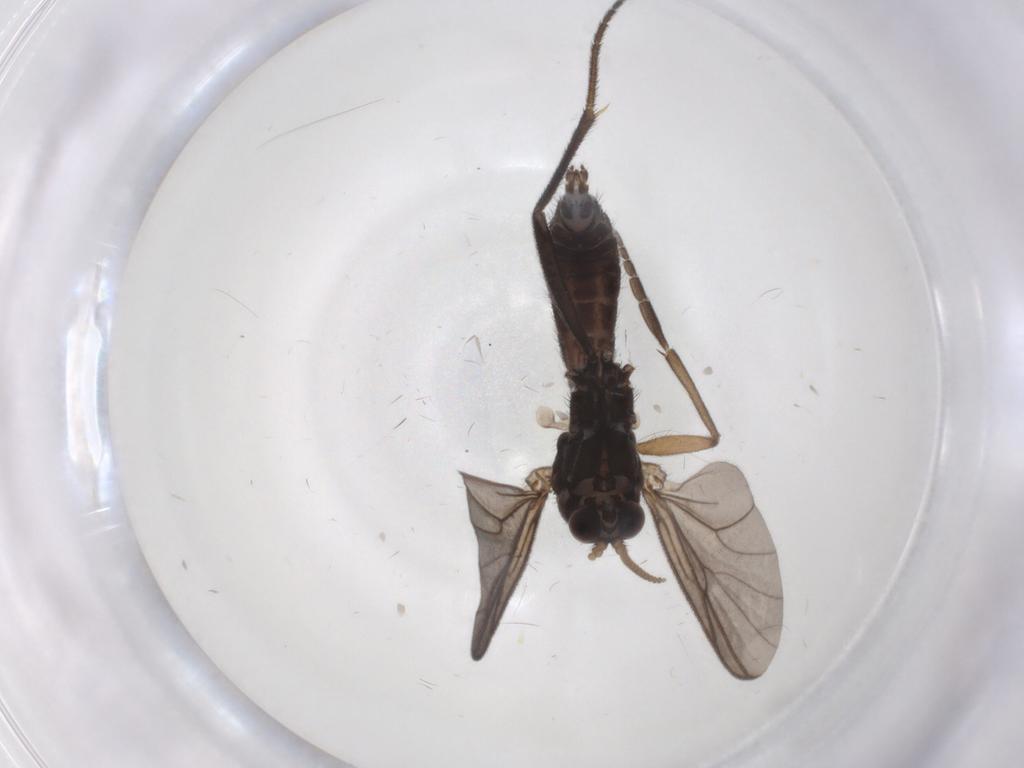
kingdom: Animalia
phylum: Arthropoda
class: Insecta
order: Diptera
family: Mycetophilidae
